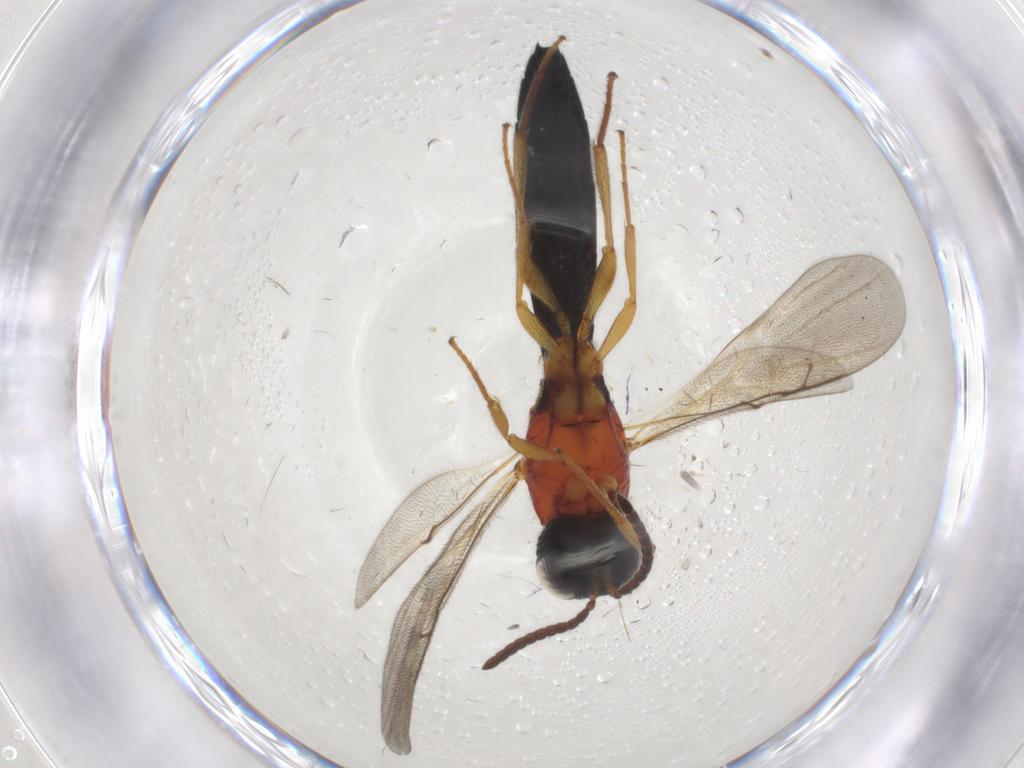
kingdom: Animalia
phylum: Arthropoda
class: Insecta
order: Hymenoptera
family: Scelionidae
